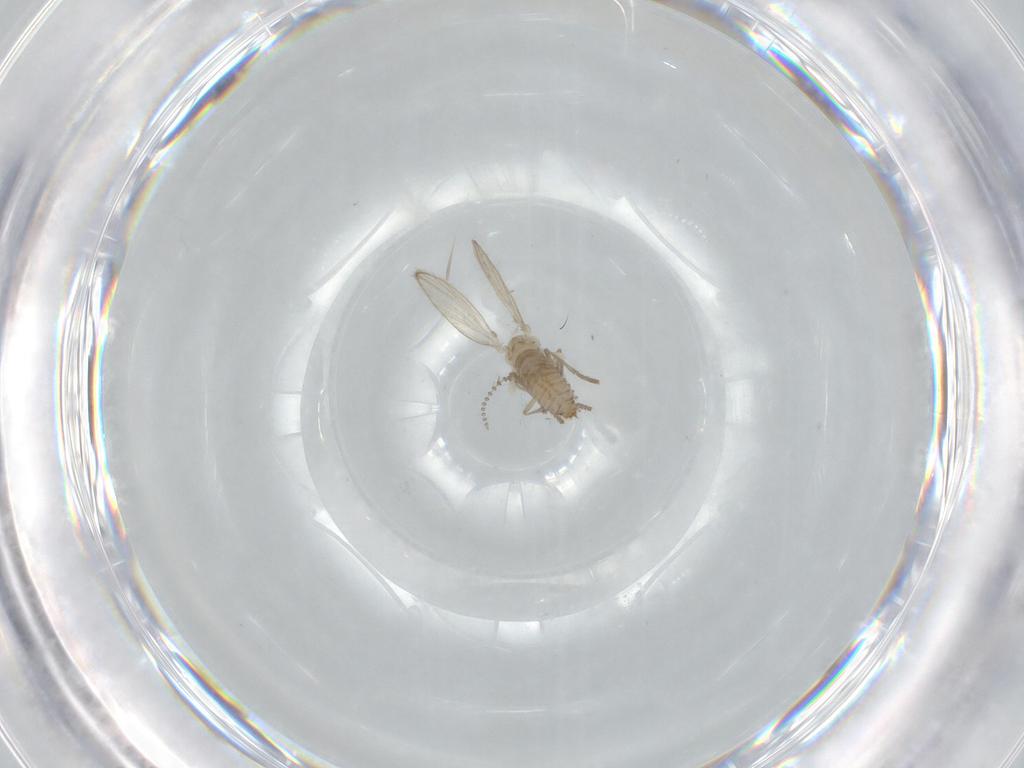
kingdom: Animalia
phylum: Arthropoda
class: Insecta
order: Diptera
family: Psychodidae
